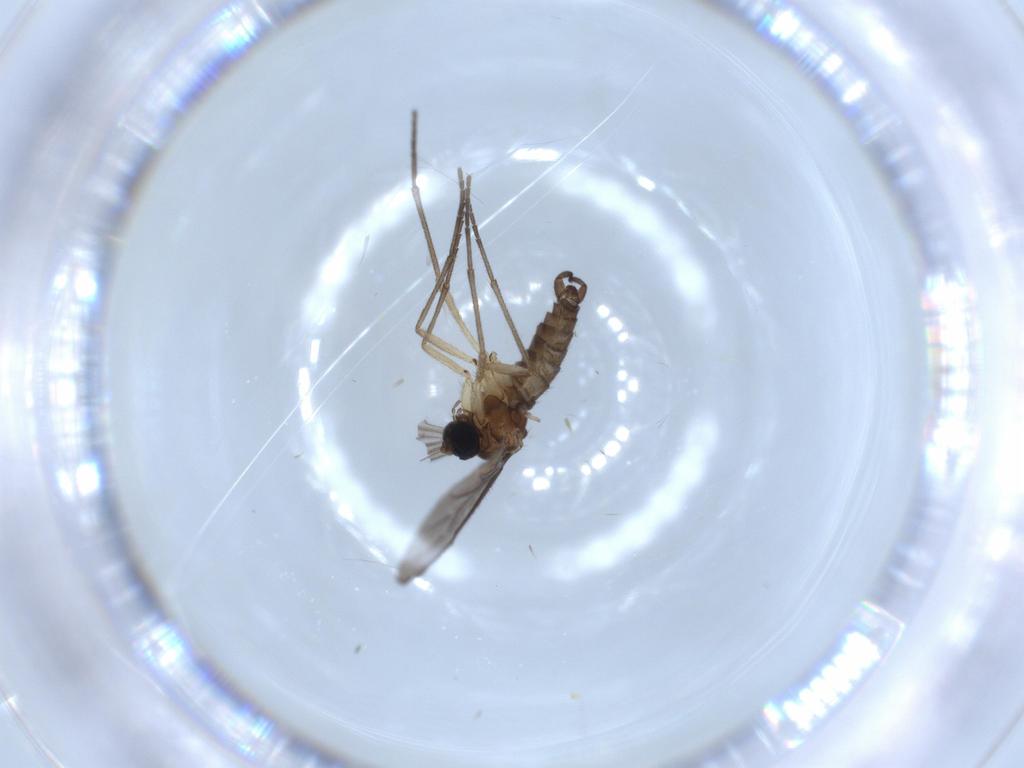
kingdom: Animalia
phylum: Arthropoda
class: Insecta
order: Diptera
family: Sciaridae
